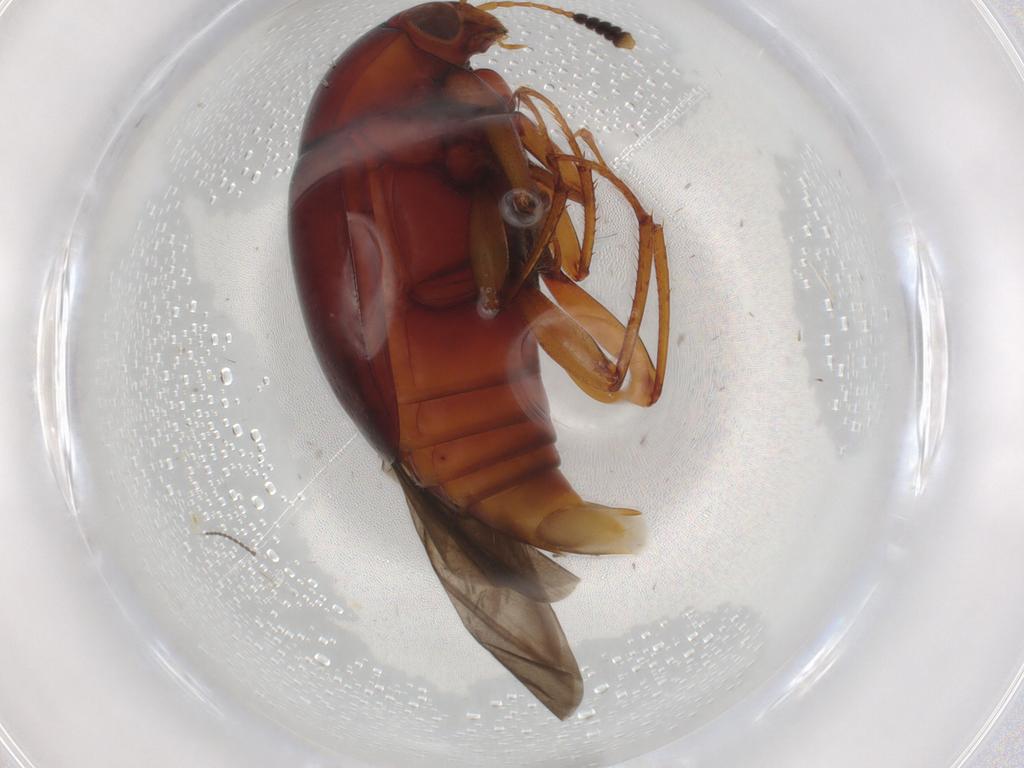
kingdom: Animalia
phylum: Arthropoda
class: Insecta
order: Coleoptera
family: Staphylinidae
